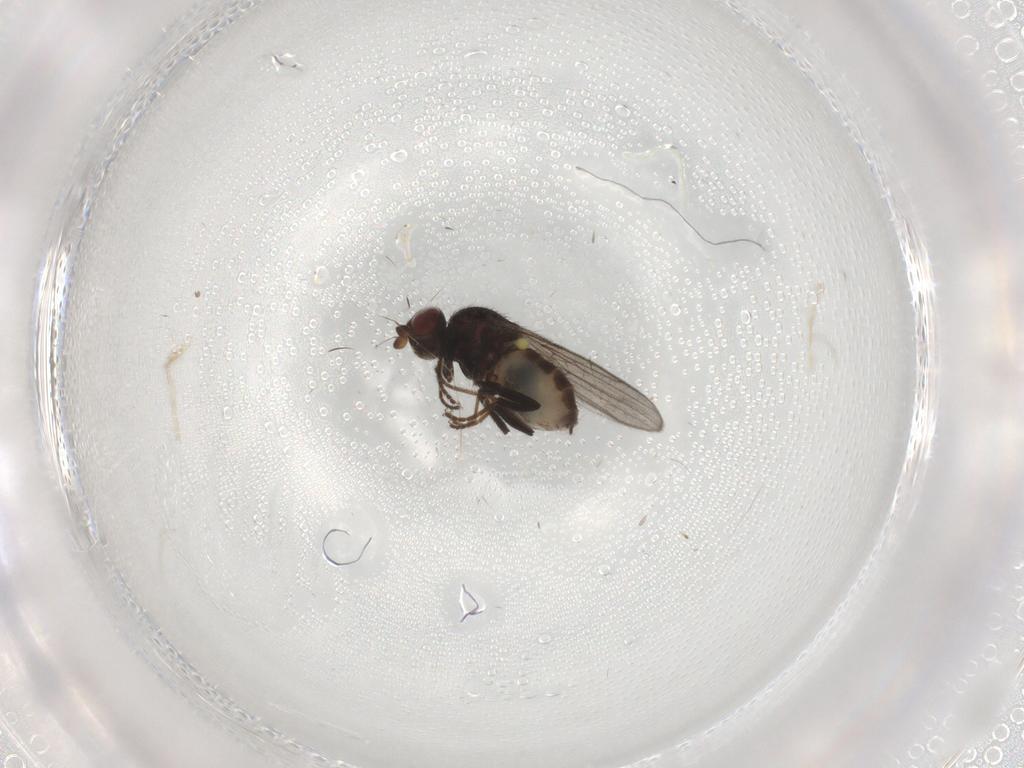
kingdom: Animalia
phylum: Arthropoda
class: Insecta
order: Diptera
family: Chloropidae
